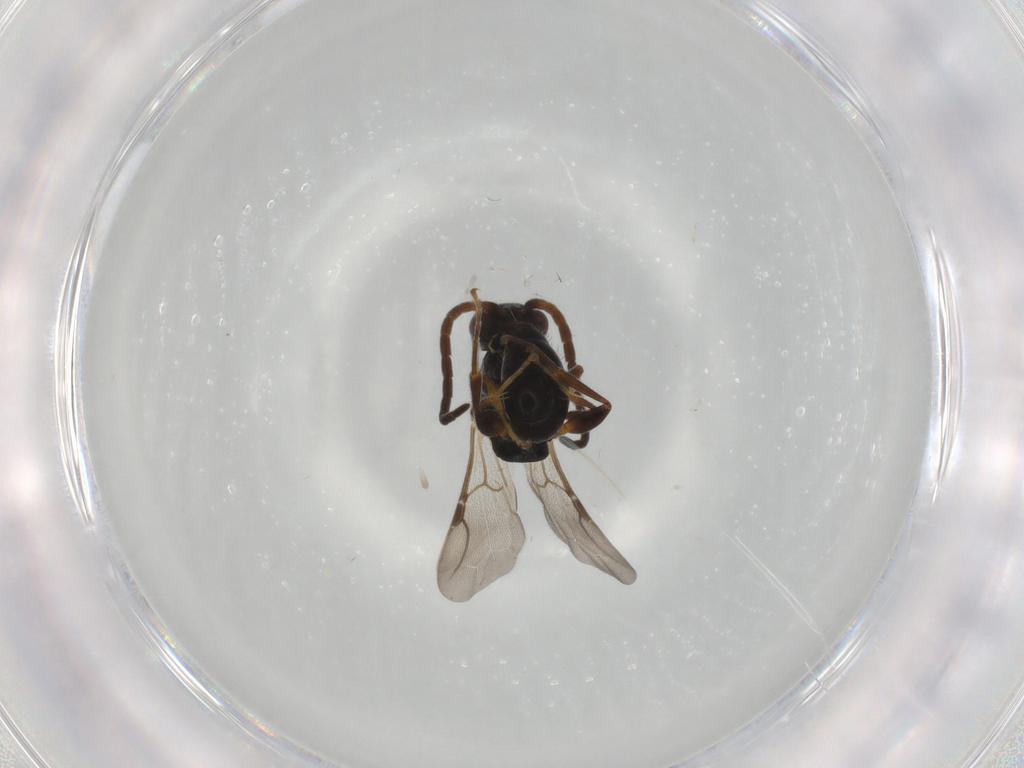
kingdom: Animalia
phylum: Arthropoda
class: Insecta
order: Hymenoptera
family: Bethylidae
